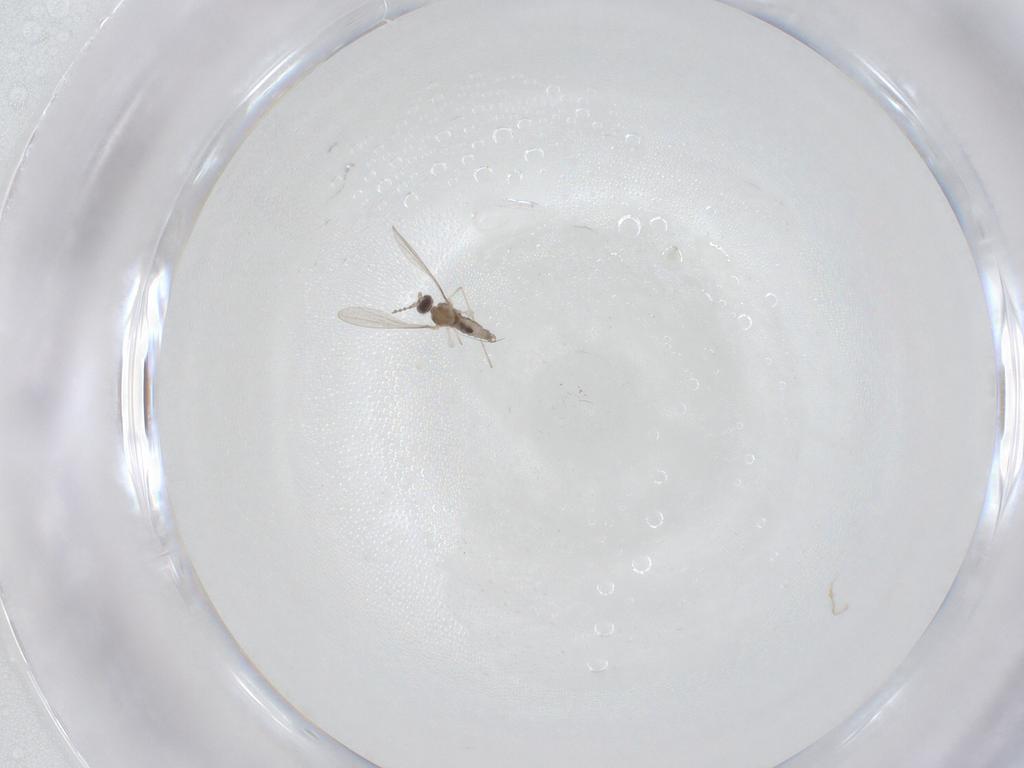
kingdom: Animalia
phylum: Arthropoda
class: Insecta
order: Diptera
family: Cecidomyiidae
